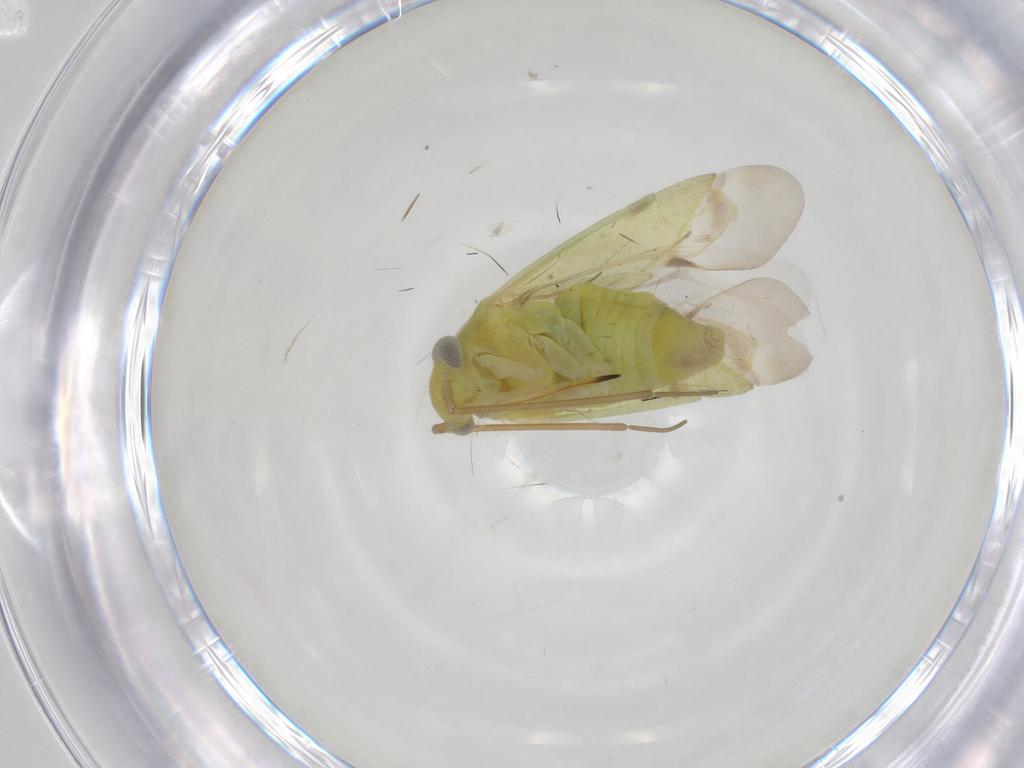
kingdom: Animalia
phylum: Arthropoda
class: Insecta
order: Hemiptera
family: Miridae
